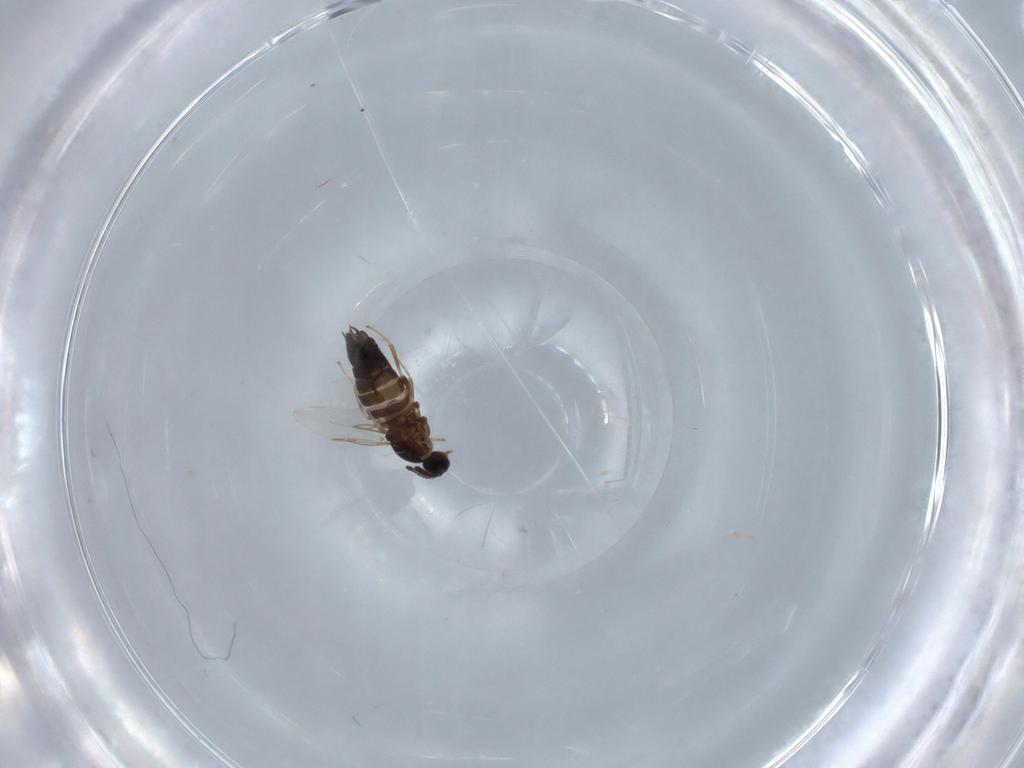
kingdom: Animalia
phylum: Arthropoda
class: Insecta
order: Diptera
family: Scatopsidae
